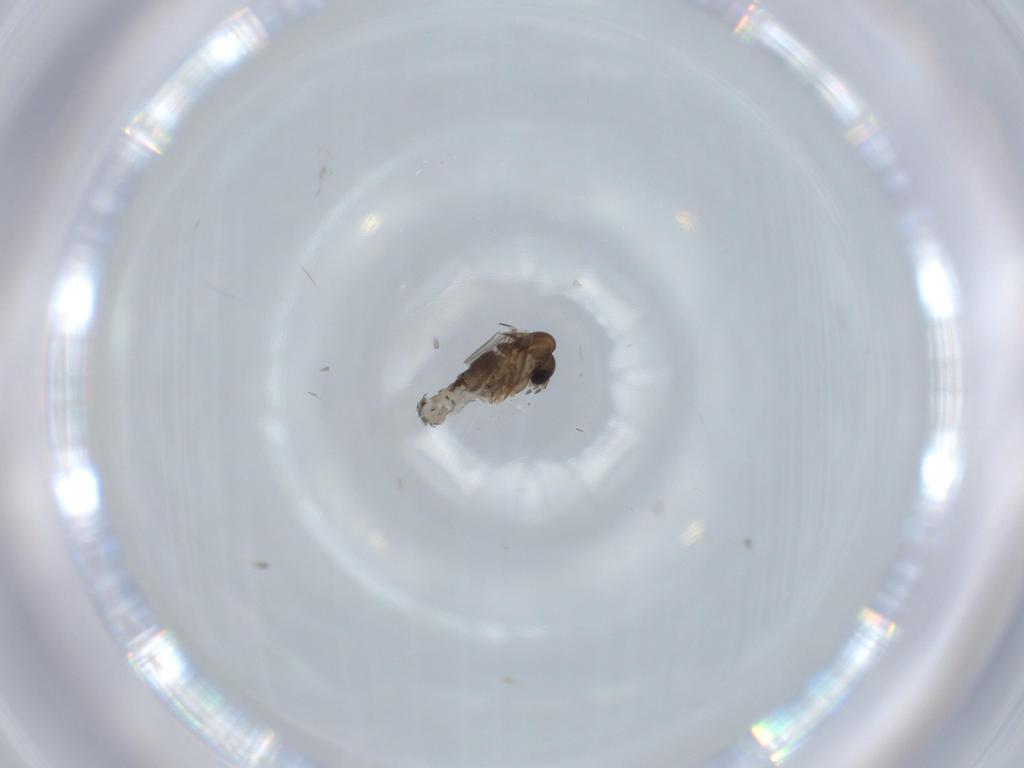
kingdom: Animalia
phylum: Arthropoda
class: Insecta
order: Diptera
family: Psychodidae
